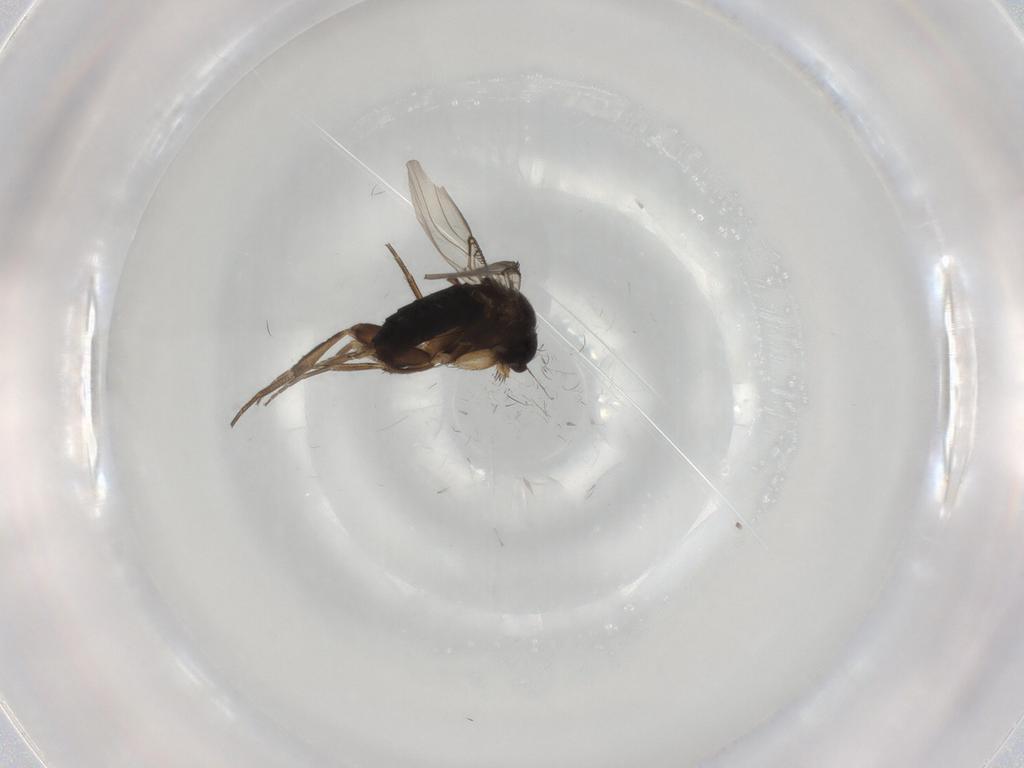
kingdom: Animalia
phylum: Arthropoda
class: Insecta
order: Diptera
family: Phoridae
